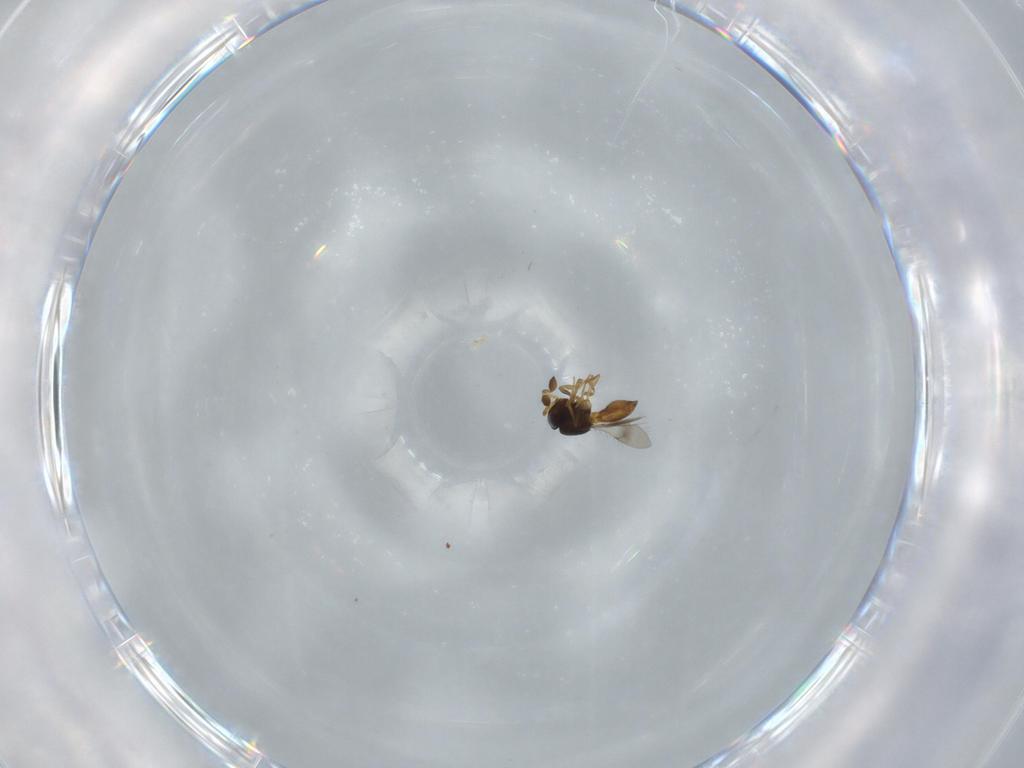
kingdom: Animalia
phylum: Arthropoda
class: Insecta
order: Hymenoptera
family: Scelionidae
